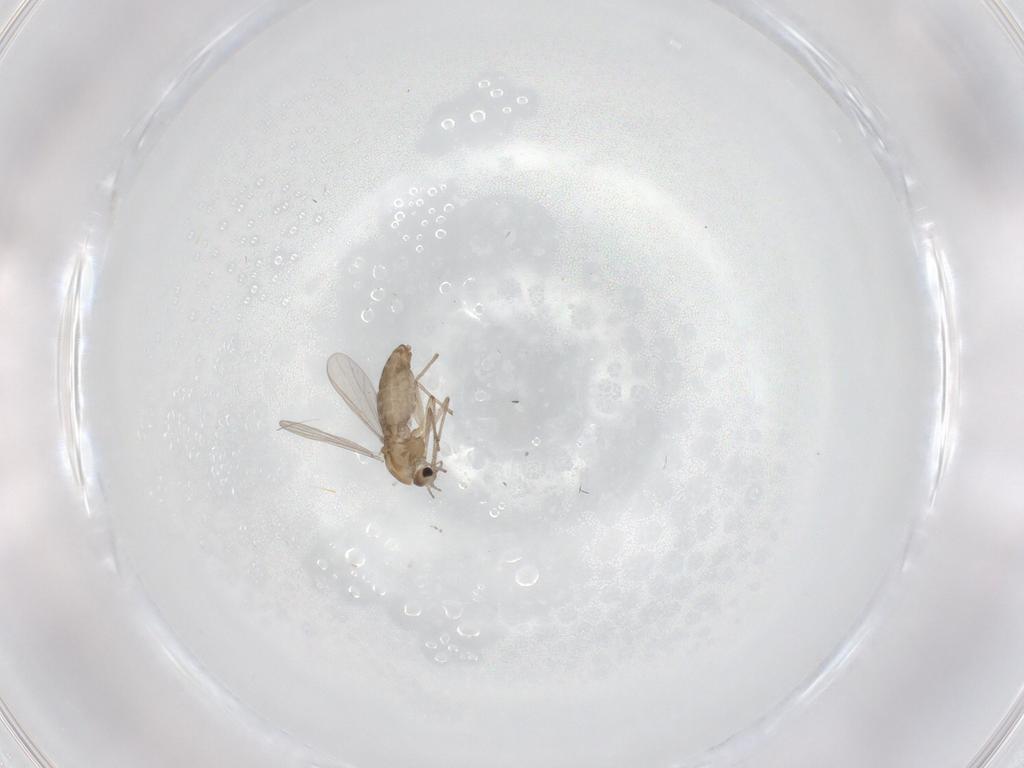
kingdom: Animalia
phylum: Arthropoda
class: Insecta
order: Diptera
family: Chironomidae
